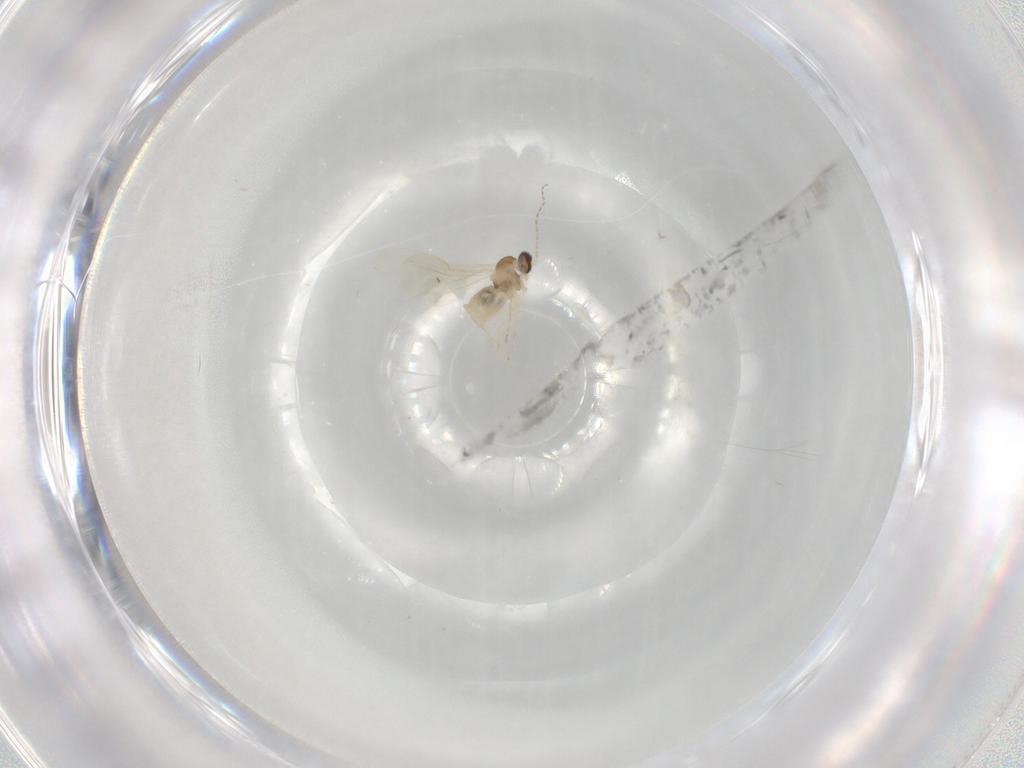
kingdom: Animalia
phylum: Arthropoda
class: Insecta
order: Diptera
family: Cecidomyiidae
